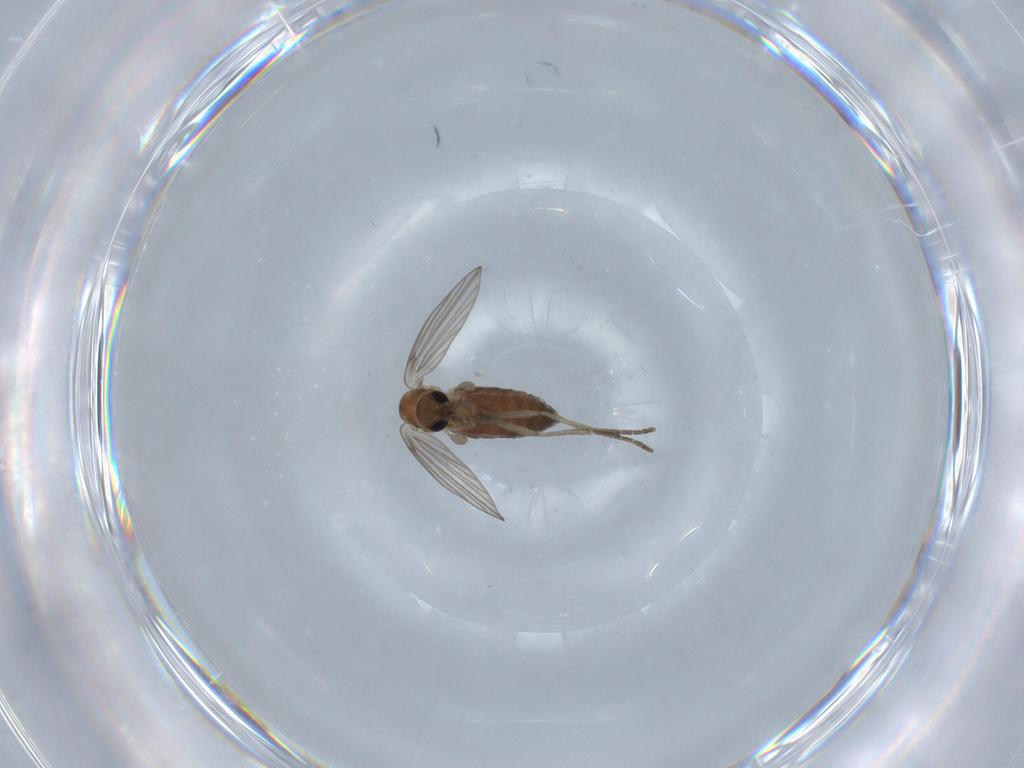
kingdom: Animalia
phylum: Arthropoda
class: Insecta
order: Diptera
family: Psychodidae
